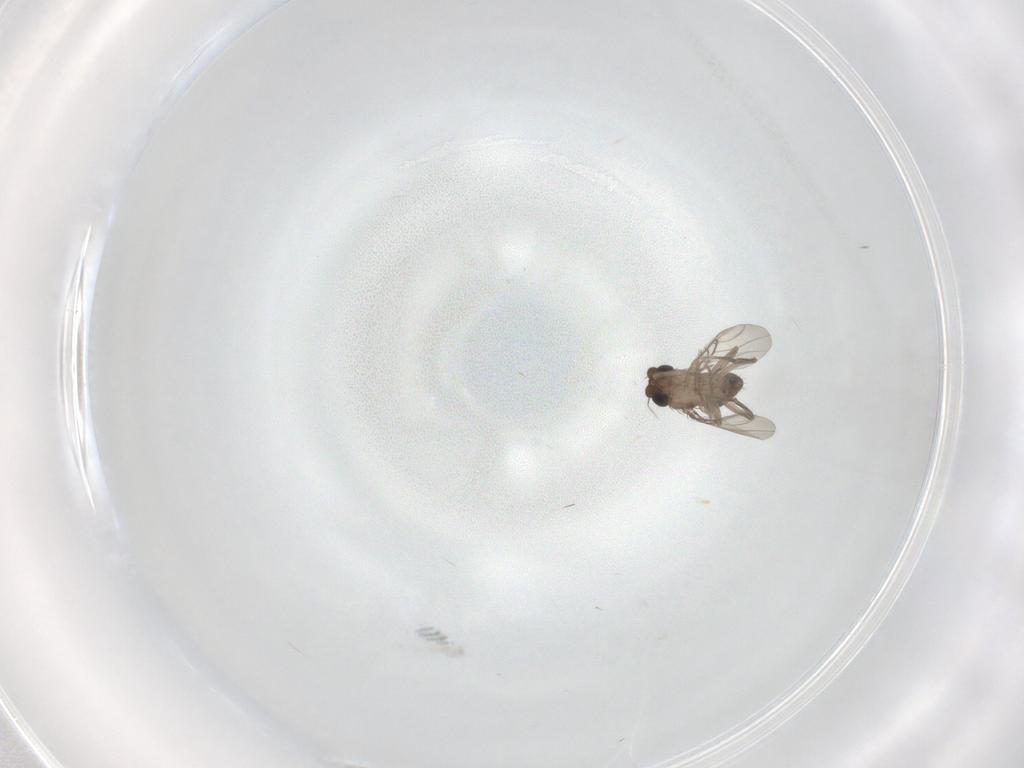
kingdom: Animalia
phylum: Arthropoda
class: Insecta
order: Diptera
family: Phoridae
